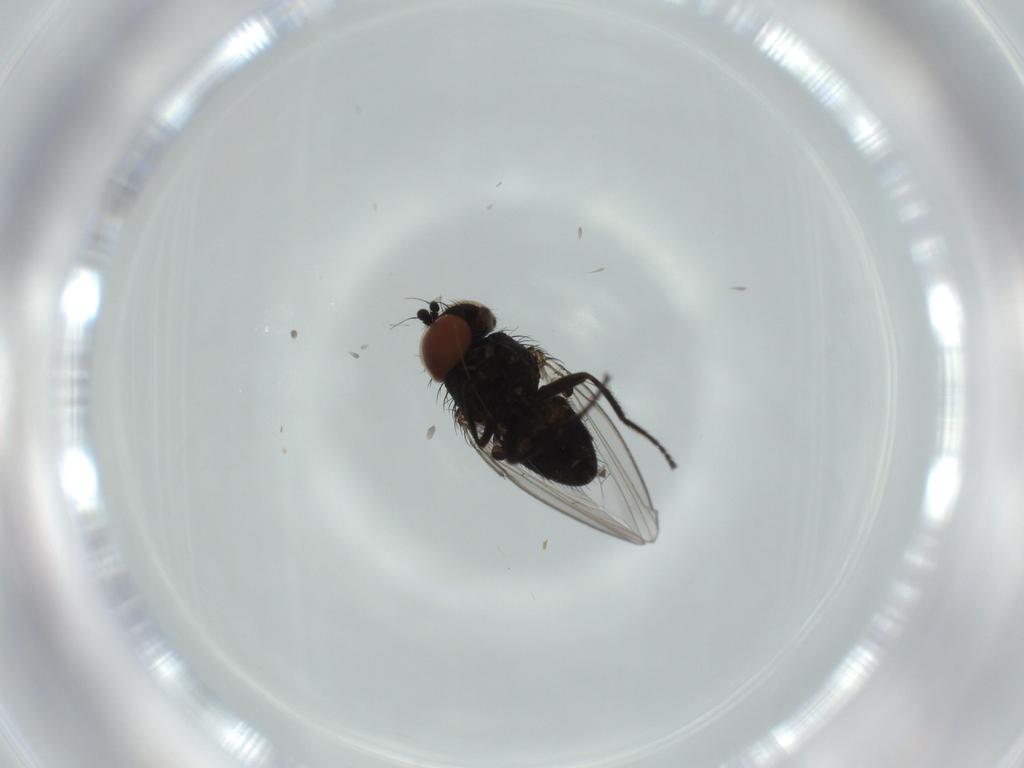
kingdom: Animalia
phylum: Arthropoda
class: Insecta
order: Diptera
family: Milichiidae
